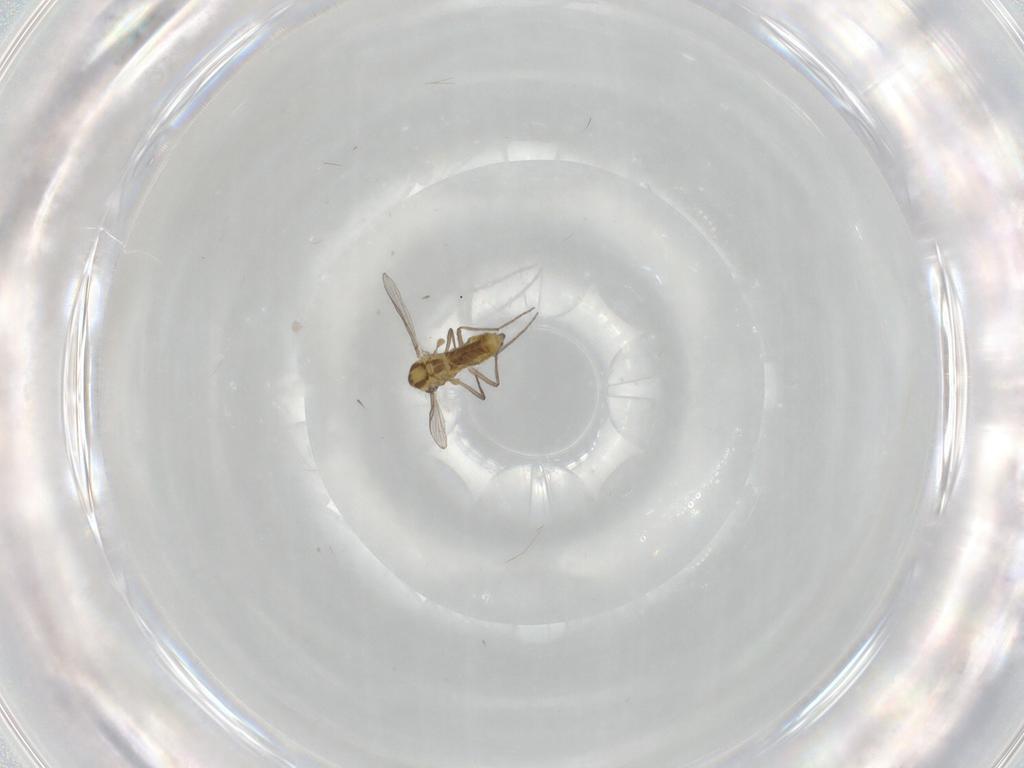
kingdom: Animalia
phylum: Arthropoda
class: Insecta
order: Diptera
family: Chironomidae
